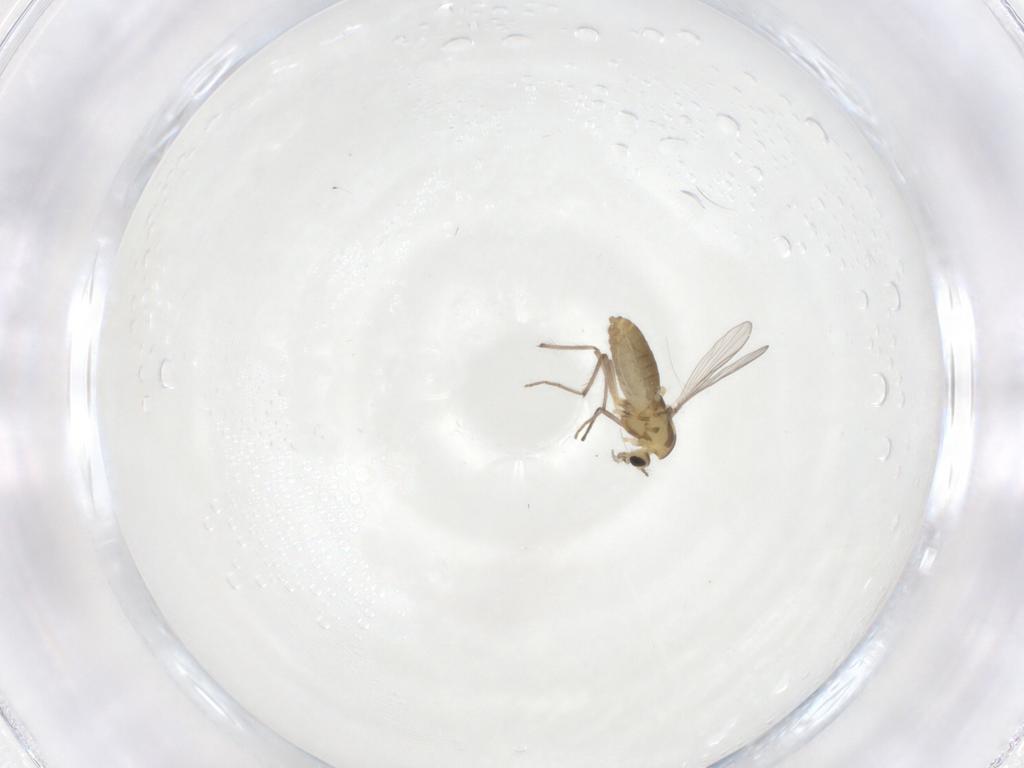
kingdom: Animalia
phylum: Arthropoda
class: Insecta
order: Diptera
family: Chironomidae
